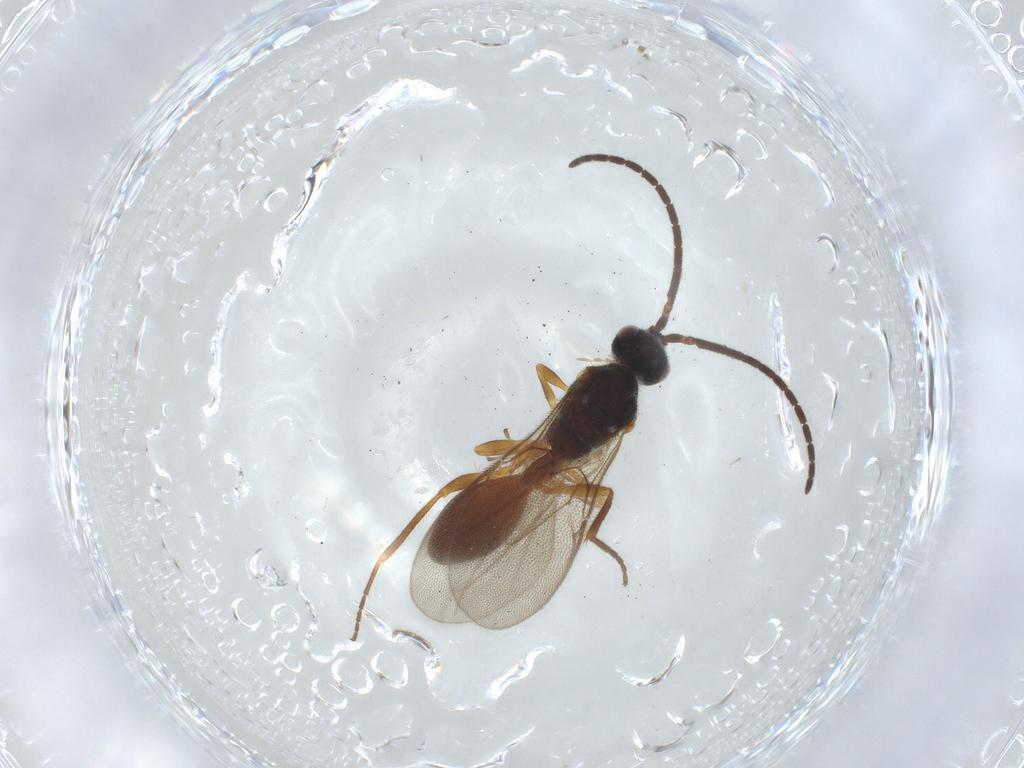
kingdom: Animalia
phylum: Arthropoda
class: Insecta
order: Hymenoptera
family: Diapriidae
